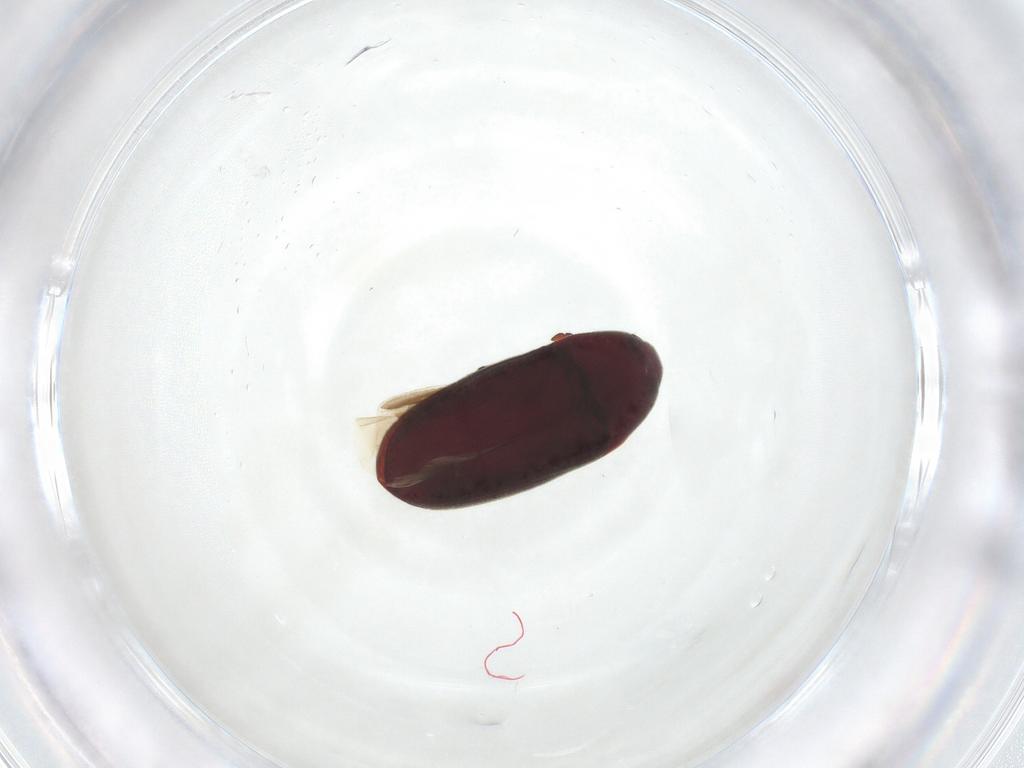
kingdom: Animalia
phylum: Arthropoda
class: Insecta
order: Coleoptera
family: Throscidae
